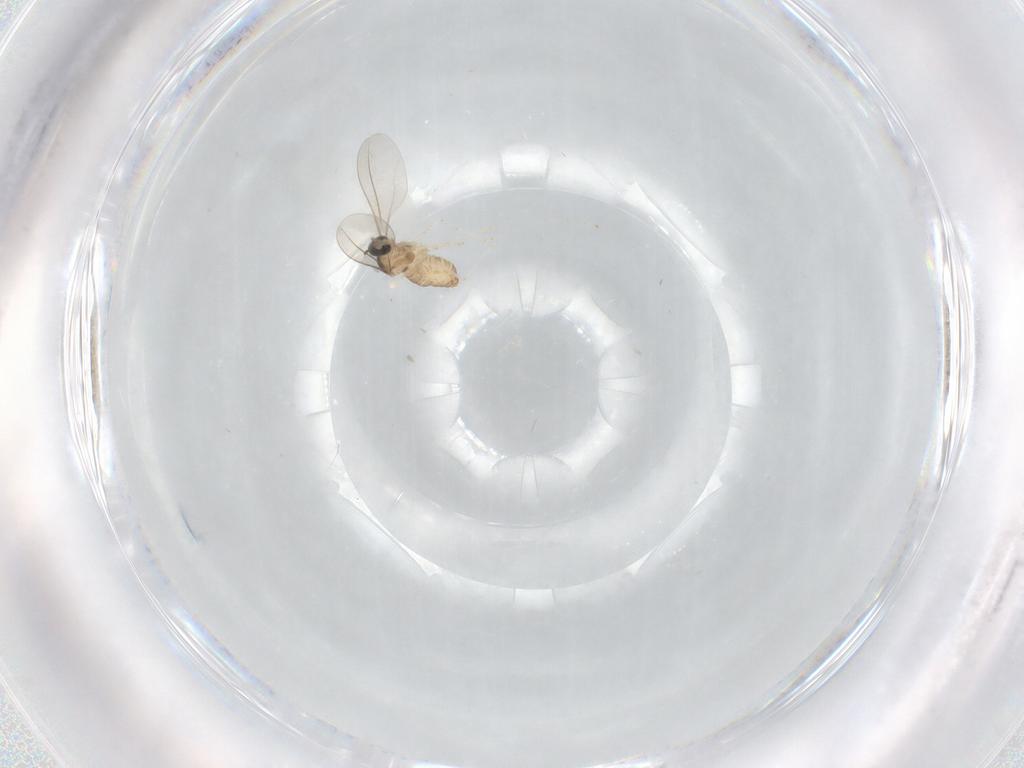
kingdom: Animalia
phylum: Arthropoda
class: Insecta
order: Diptera
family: Cecidomyiidae
